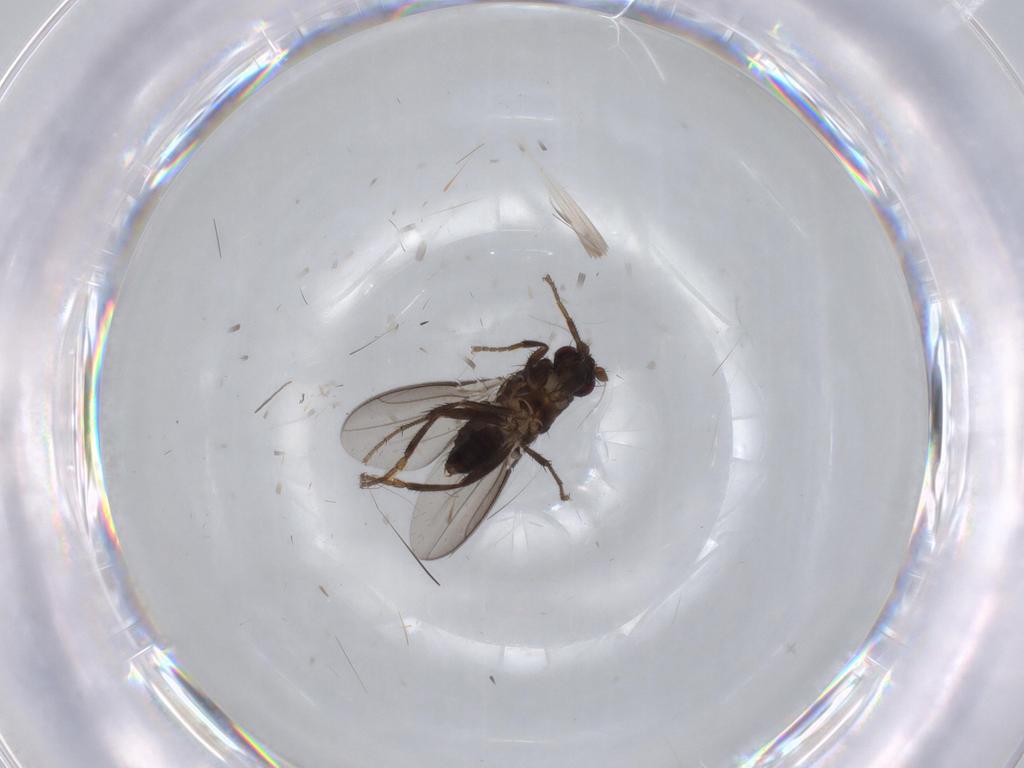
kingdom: Animalia
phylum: Arthropoda
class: Insecta
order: Diptera
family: Sphaeroceridae
